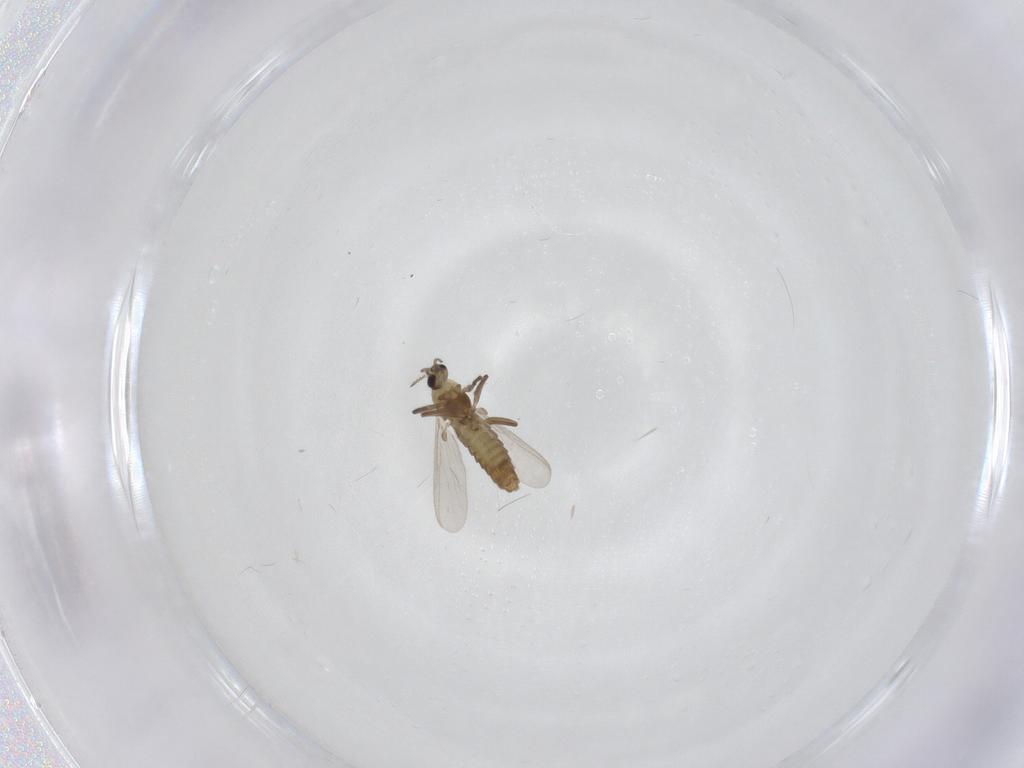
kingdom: Animalia
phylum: Arthropoda
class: Insecta
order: Diptera
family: Chironomidae
